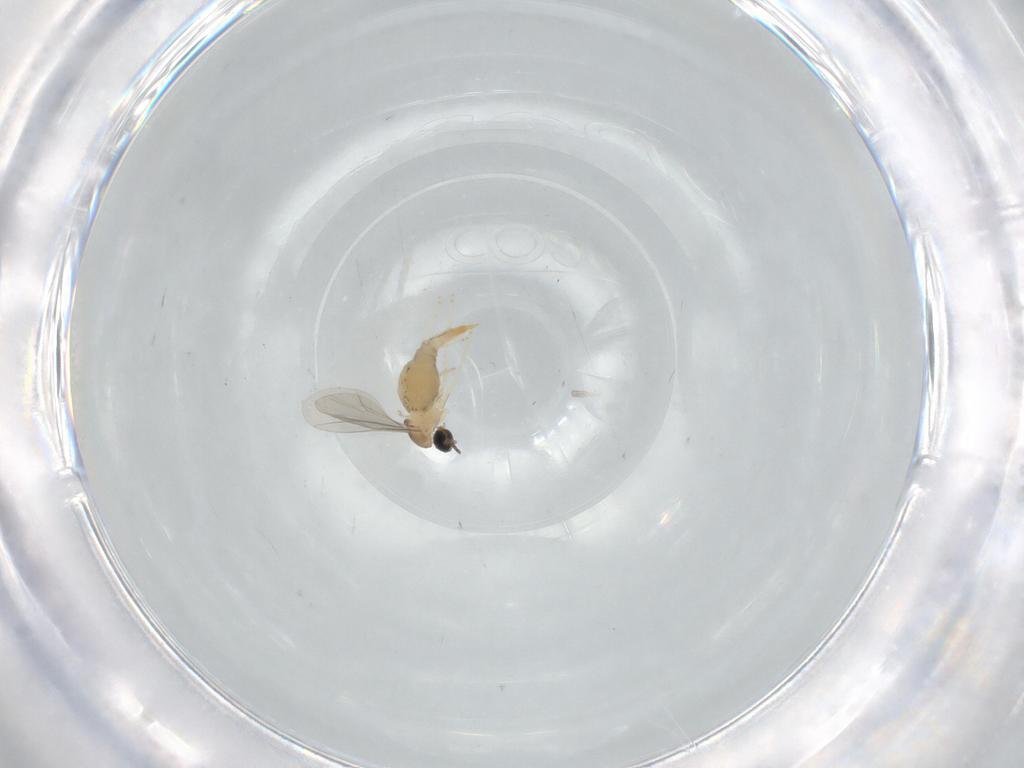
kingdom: Animalia
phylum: Arthropoda
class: Insecta
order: Diptera
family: Cecidomyiidae
